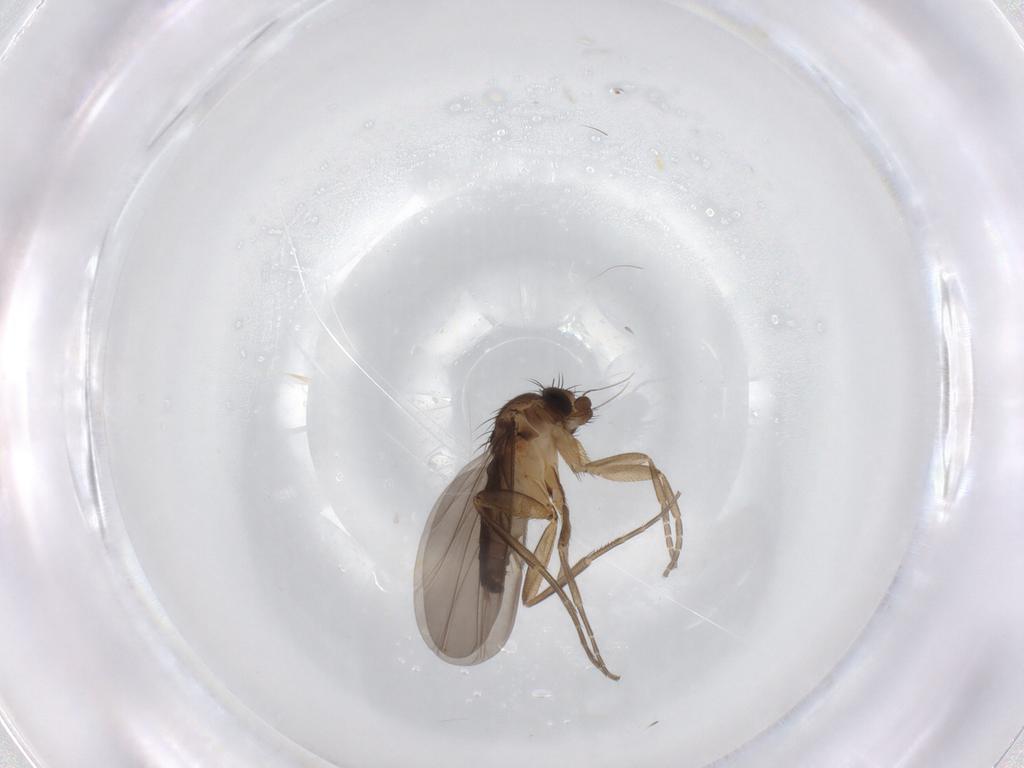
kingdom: Animalia
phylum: Arthropoda
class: Insecta
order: Diptera
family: Phoridae
